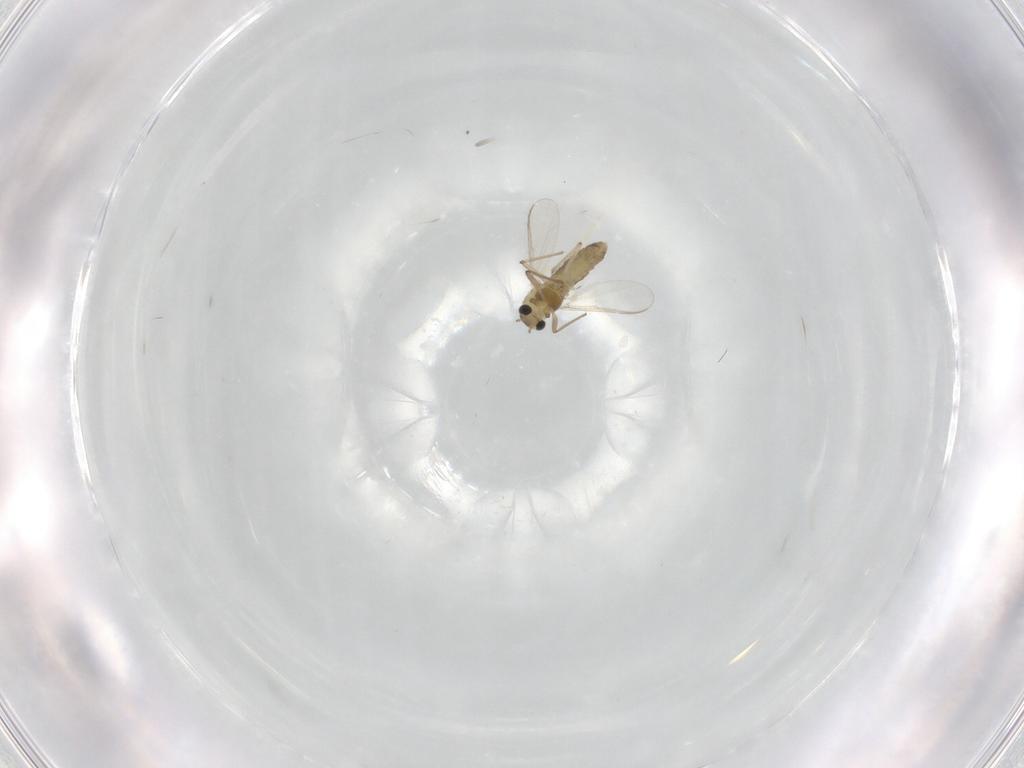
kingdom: Animalia
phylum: Arthropoda
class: Insecta
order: Diptera
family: Cecidomyiidae
